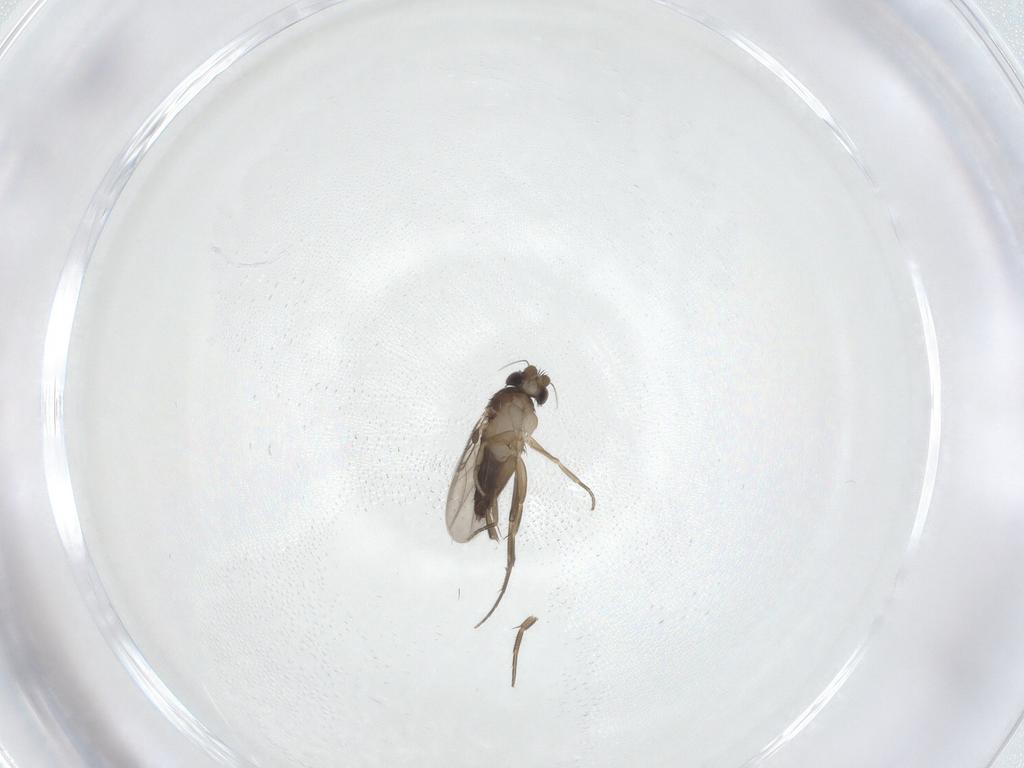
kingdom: Animalia
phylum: Arthropoda
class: Insecta
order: Diptera
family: Phoridae
